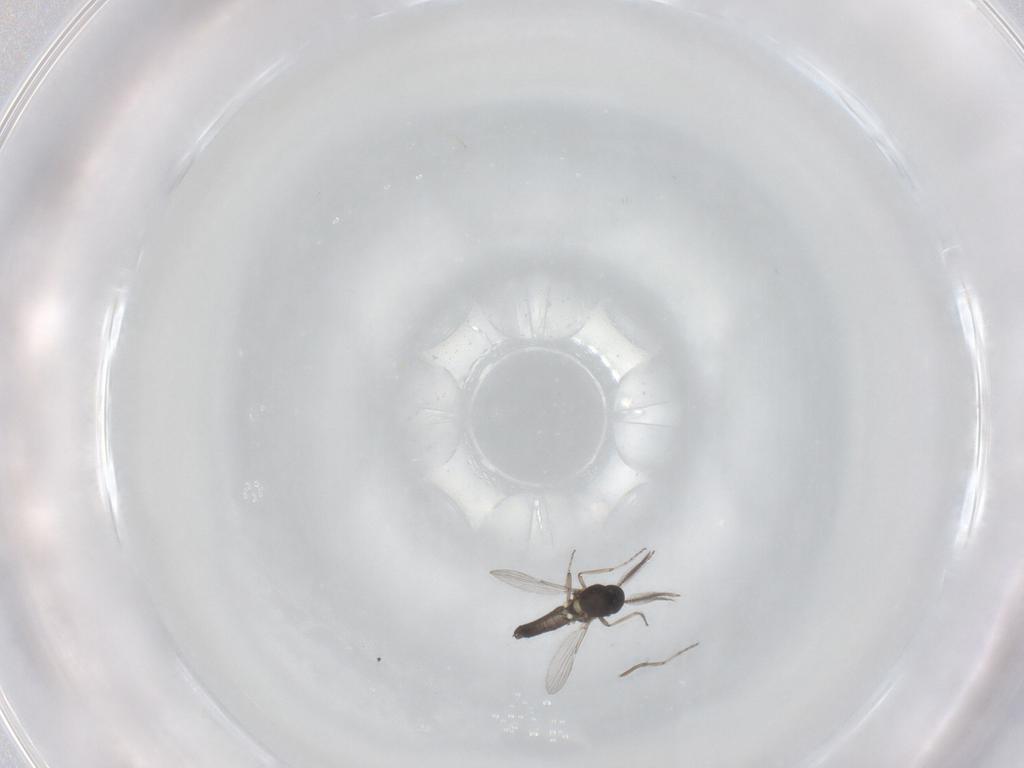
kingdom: Animalia
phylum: Arthropoda
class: Insecta
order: Diptera
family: Ceratopogonidae
